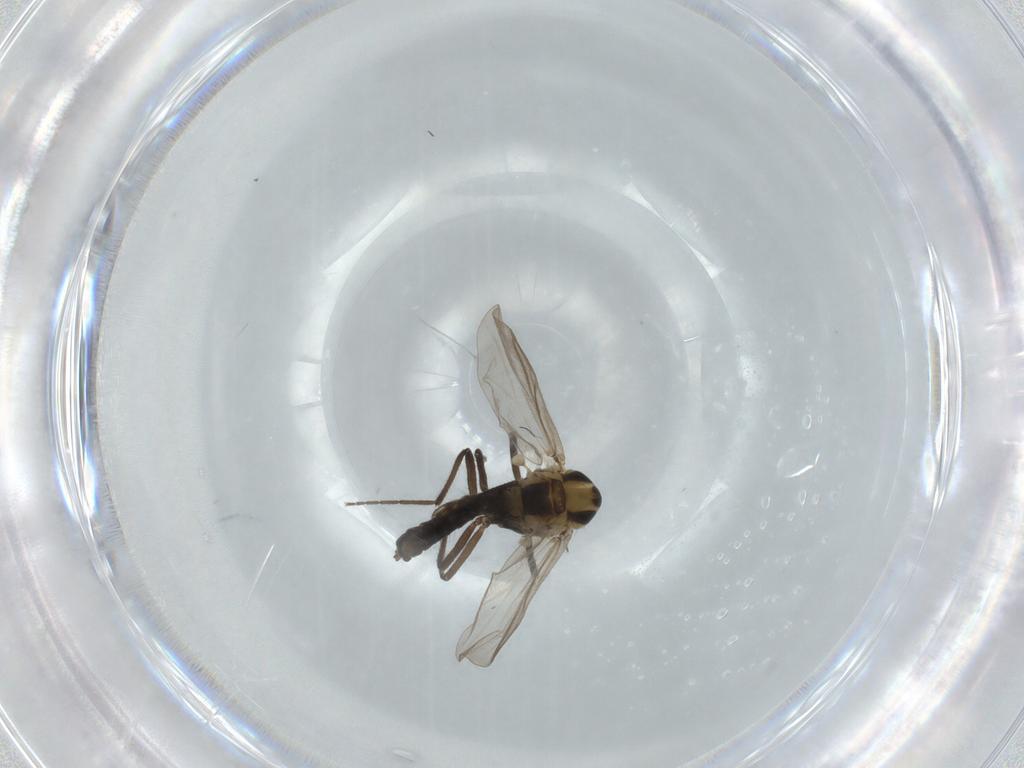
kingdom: Animalia
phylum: Arthropoda
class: Insecta
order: Diptera
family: Chironomidae
